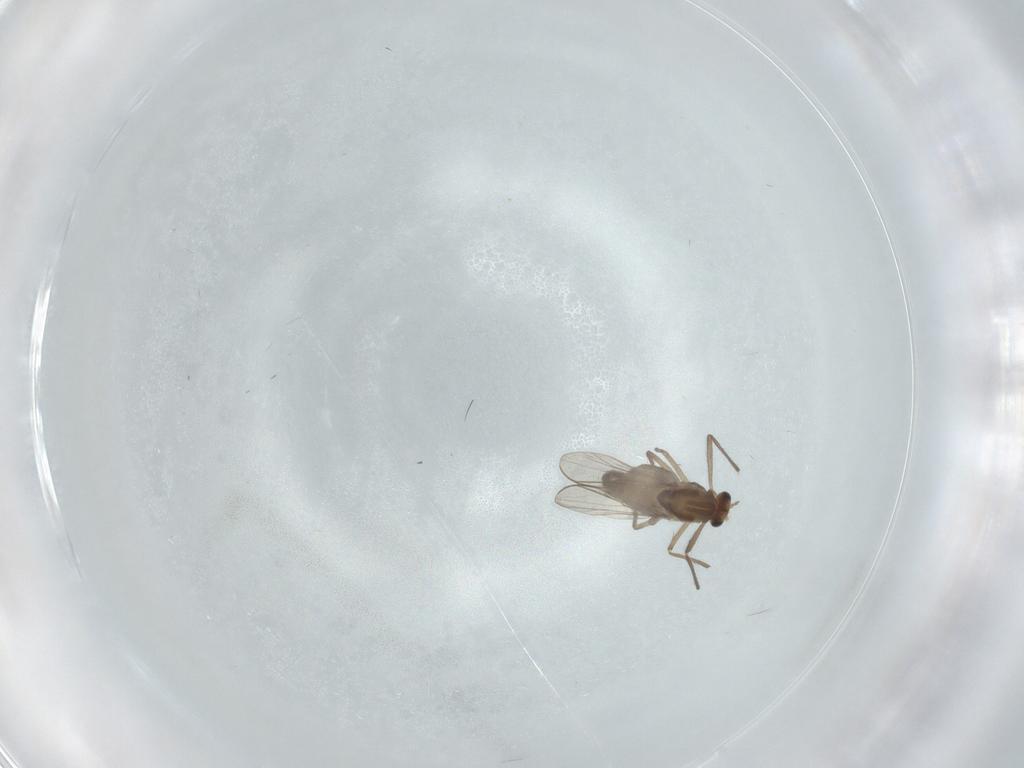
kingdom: Animalia
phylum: Arthropoda
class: Insecta
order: Diptera
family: Chironomidae
